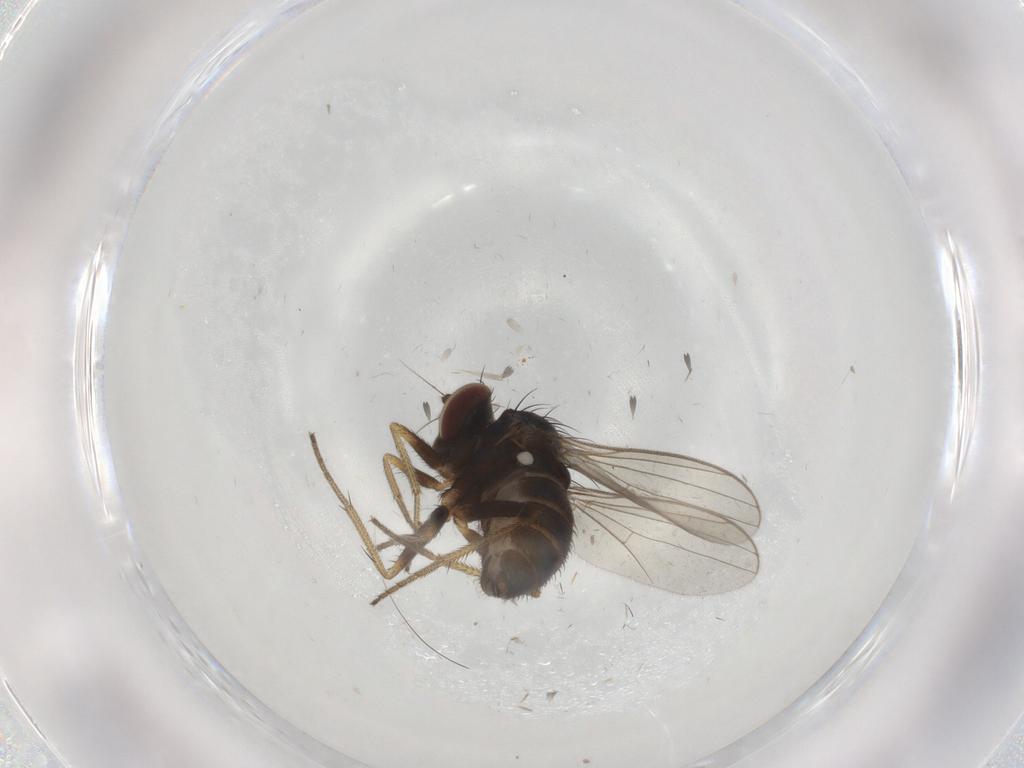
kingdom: Animalia
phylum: Arthropoda
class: Insecta
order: Diptera
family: Dolichopodidae
